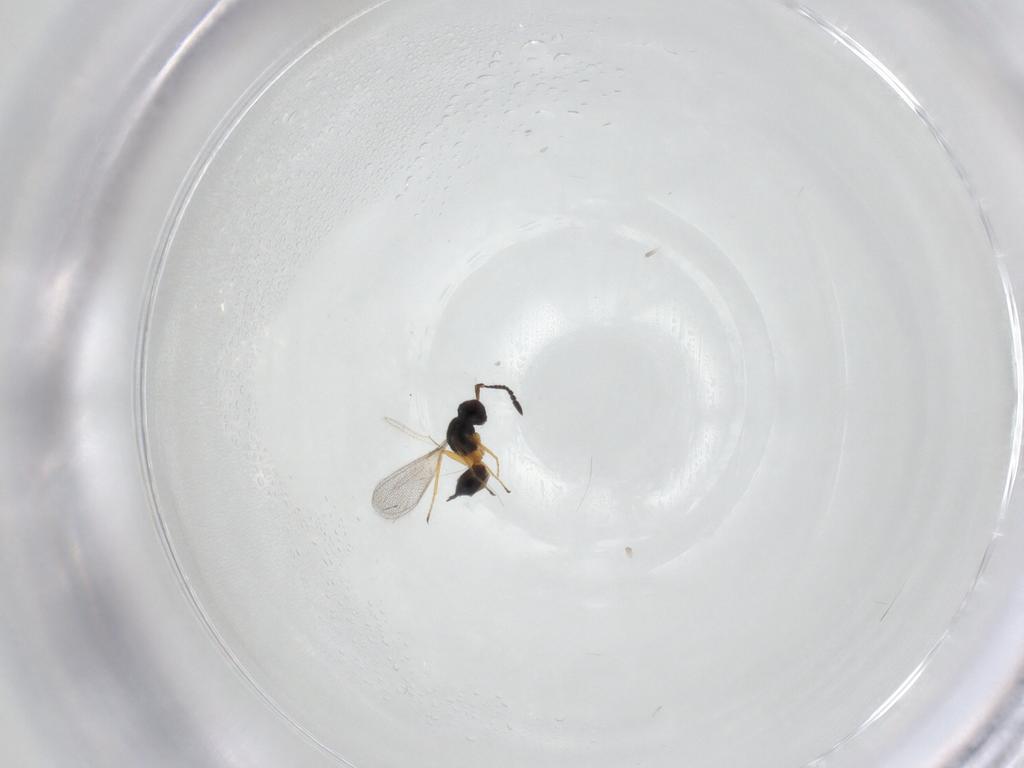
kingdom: Animalia
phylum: Arthropoda
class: Insecta
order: Hymenoptera
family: Mymaridae
